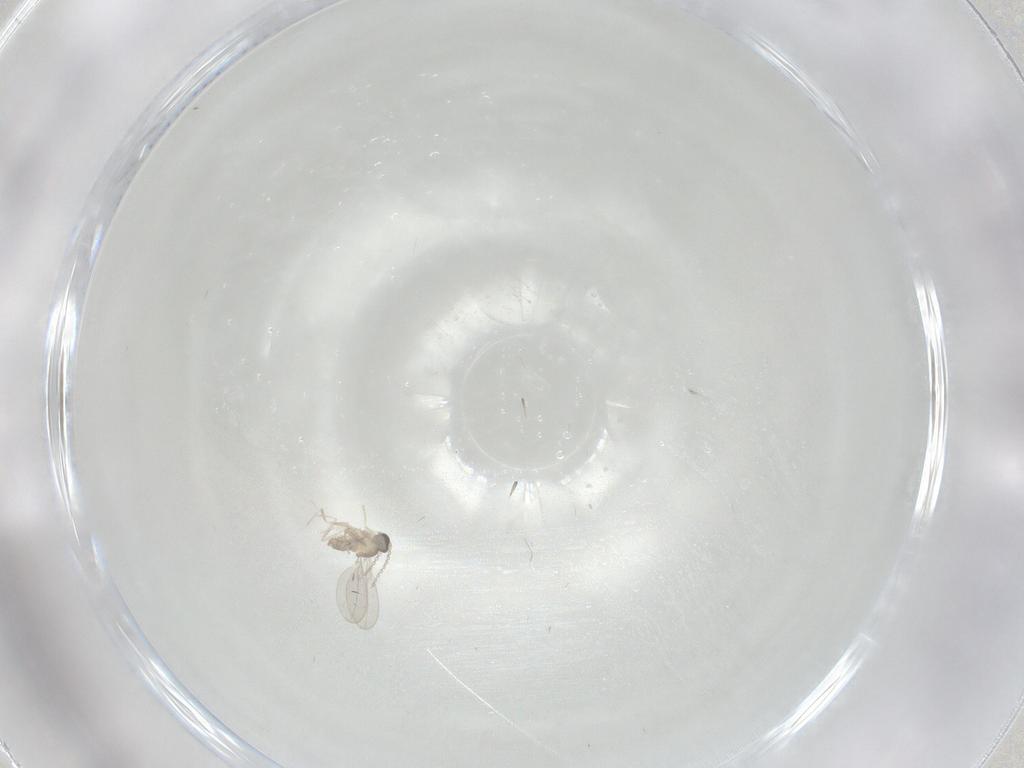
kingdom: Animalia
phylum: Arthropoda
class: Insecta
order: Diptera
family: Cecidomyiidae
